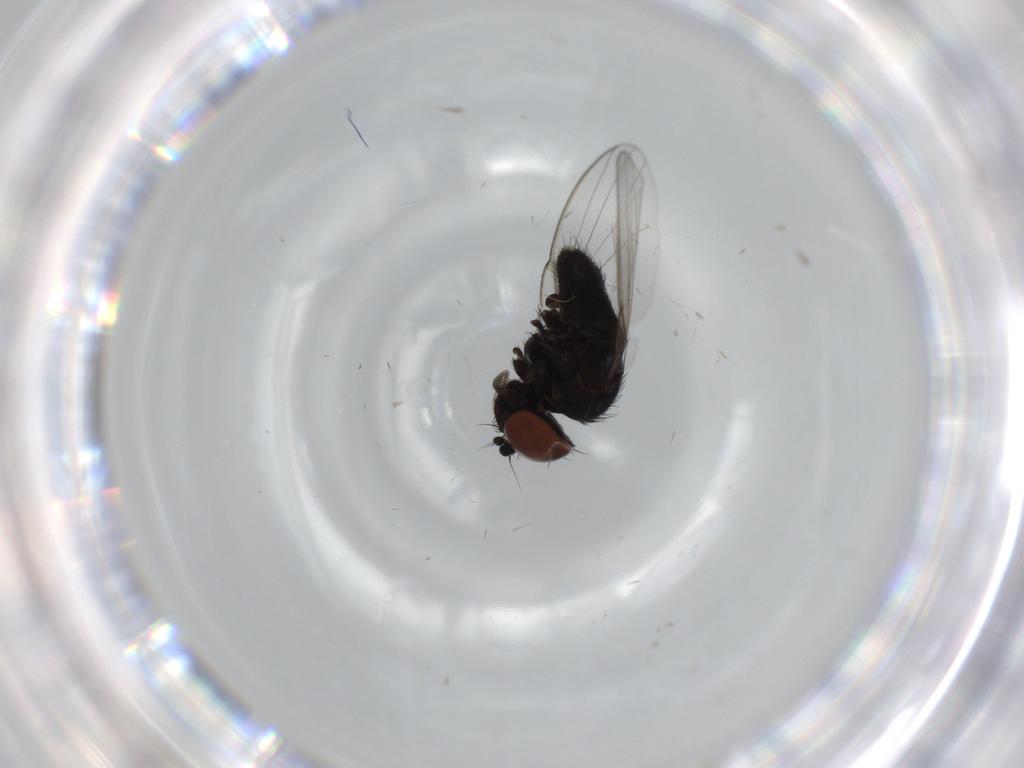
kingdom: Animalia
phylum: Arthropoda
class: Insecta
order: Diptera
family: Milichiidae
